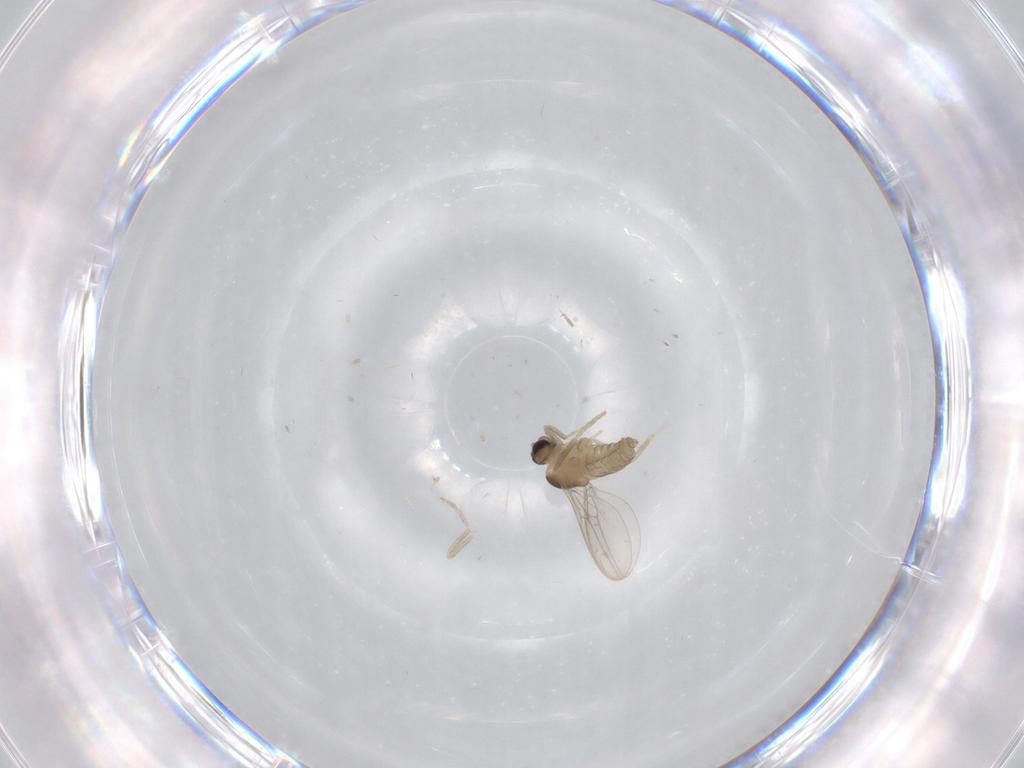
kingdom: Animalia
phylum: Arthropoda
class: Insecta
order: Diptera
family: Cecidomyiidae
